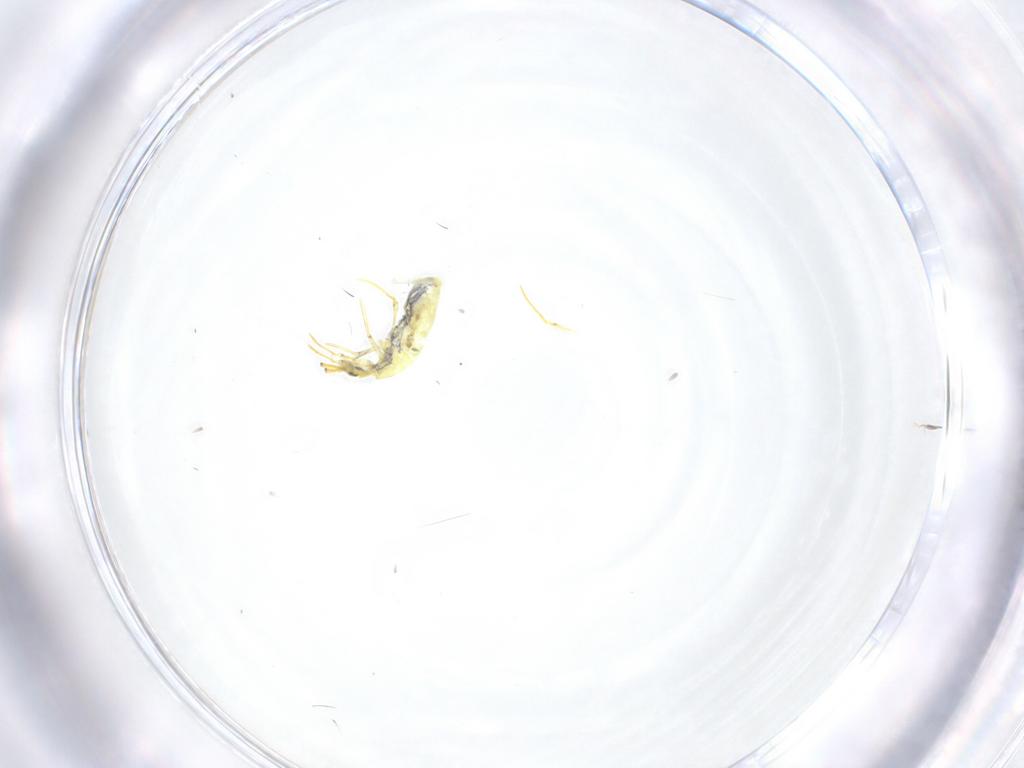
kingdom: Animalia
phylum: Arthropoda
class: Collembola
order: Entomobryomorpha
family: Entomobryidae
